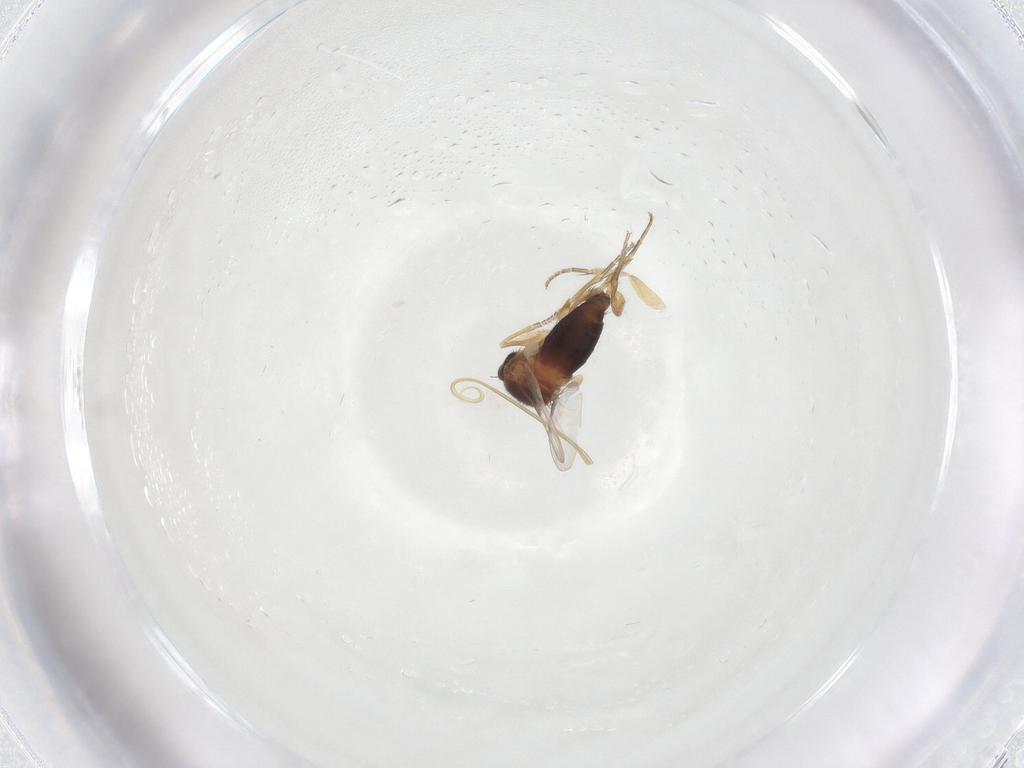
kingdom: Animalia
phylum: Arthropoda
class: Insecta
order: Diptera
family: Phoridae
